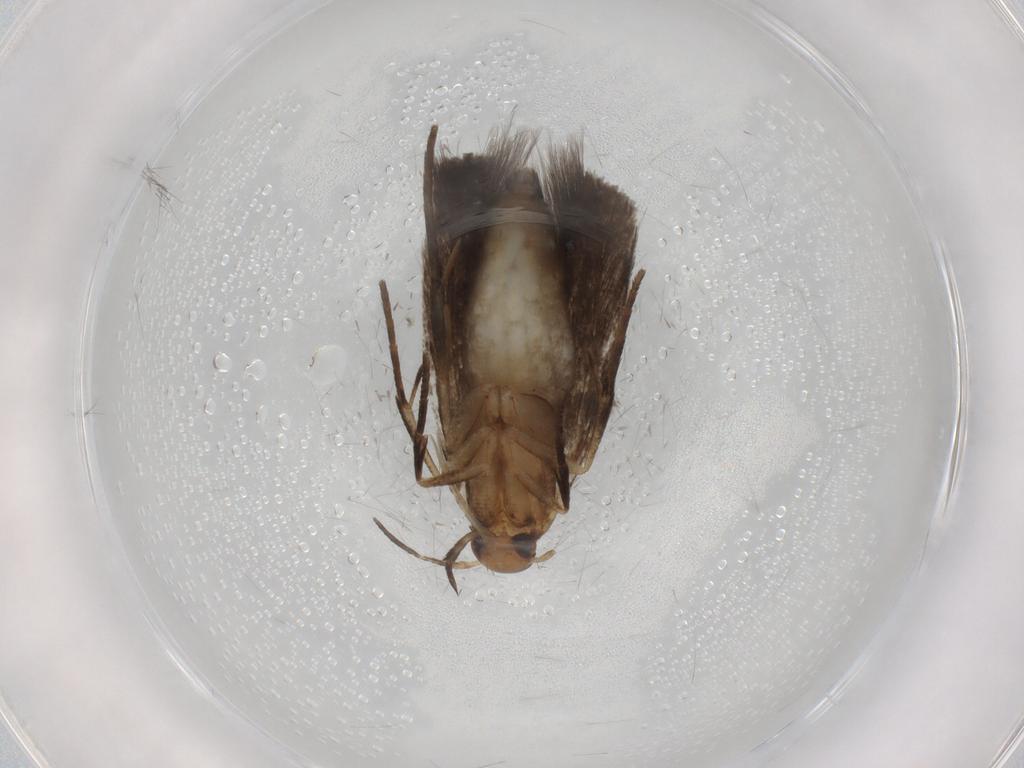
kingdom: Animalia
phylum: Arthropoda
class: Insecta
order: Lepidoptera
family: Cosmopterigidae
